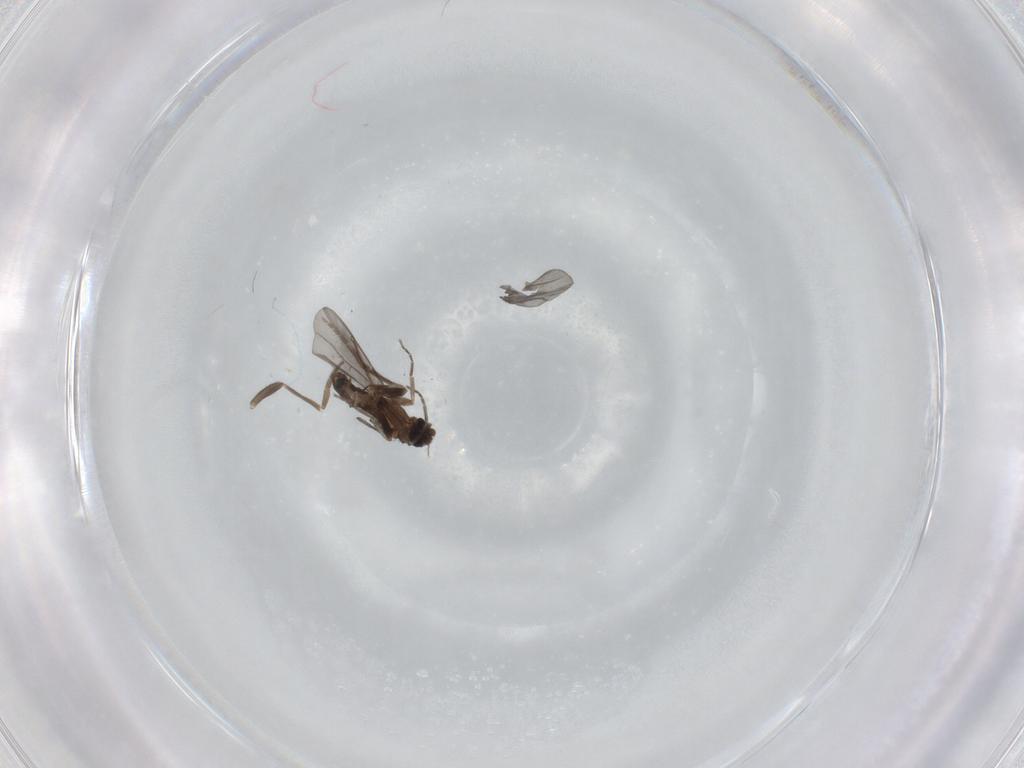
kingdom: Animalia
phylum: Arthropoda
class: Insecta
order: Diptera
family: Phoridae
